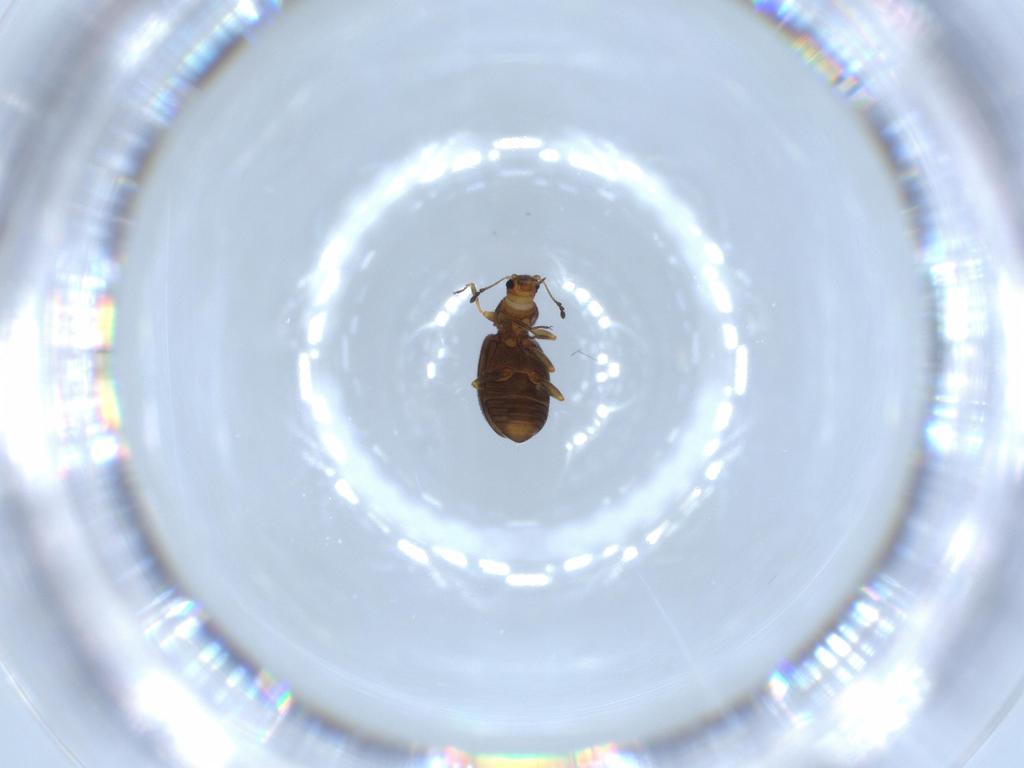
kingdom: Animalia
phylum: Arthropoda
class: Insecta
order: Coleoptera
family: Latridiidae
